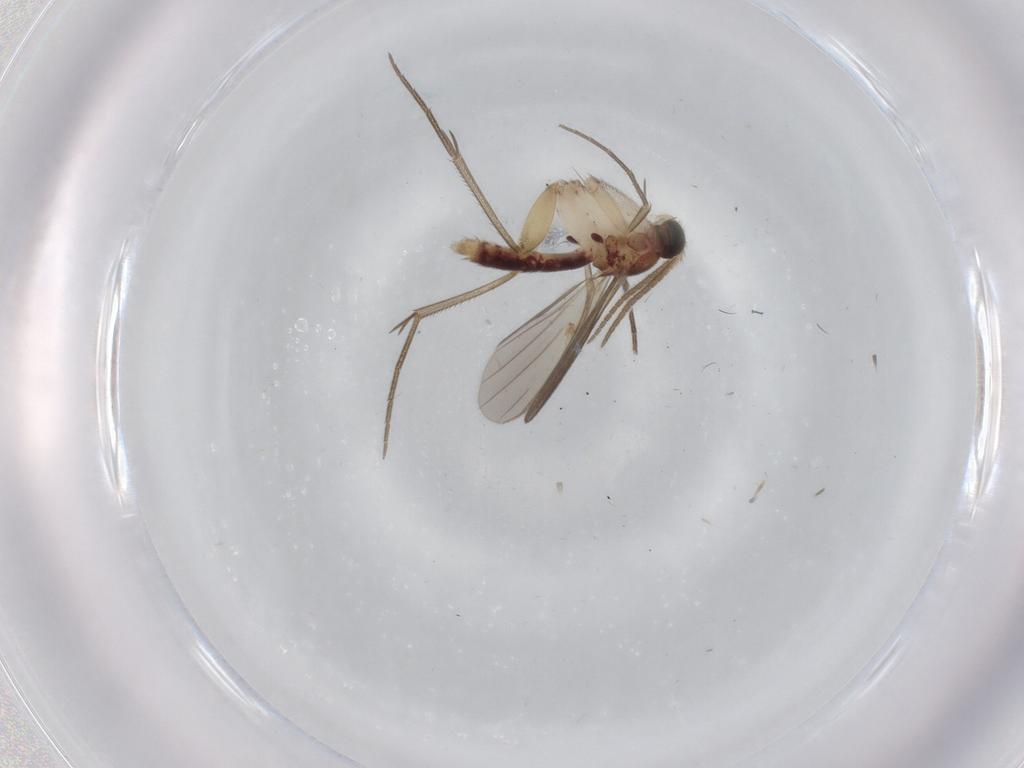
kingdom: Animalia
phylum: Arthropoda
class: Insecta
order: Diptera
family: Mycetophilidae
